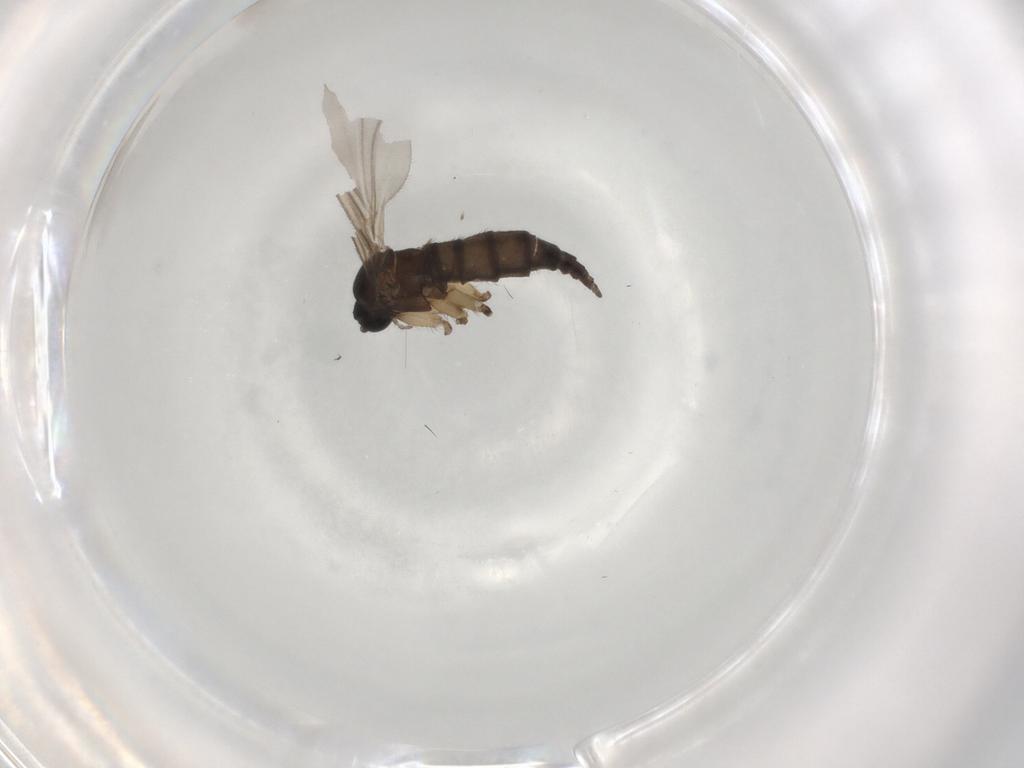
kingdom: Animalia
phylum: Arthropoda
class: Insecta
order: Diptera
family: Sciaridae
